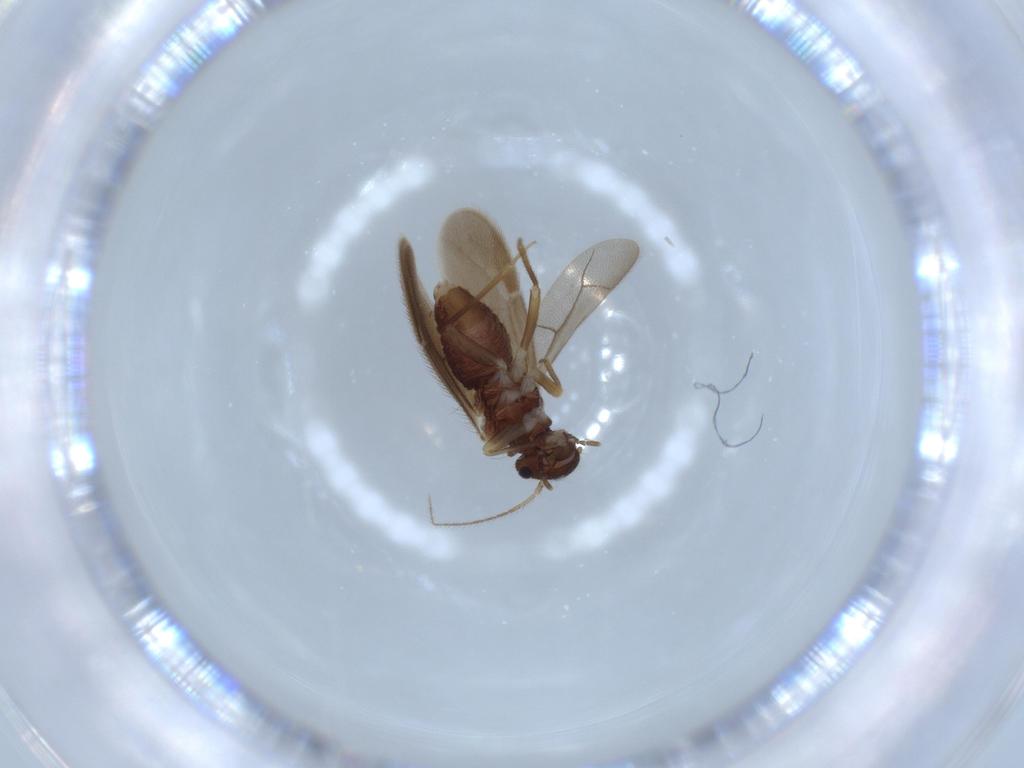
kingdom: Animalia
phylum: Arthropoda
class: Insecta
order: Psocodea
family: Archipsocidae
